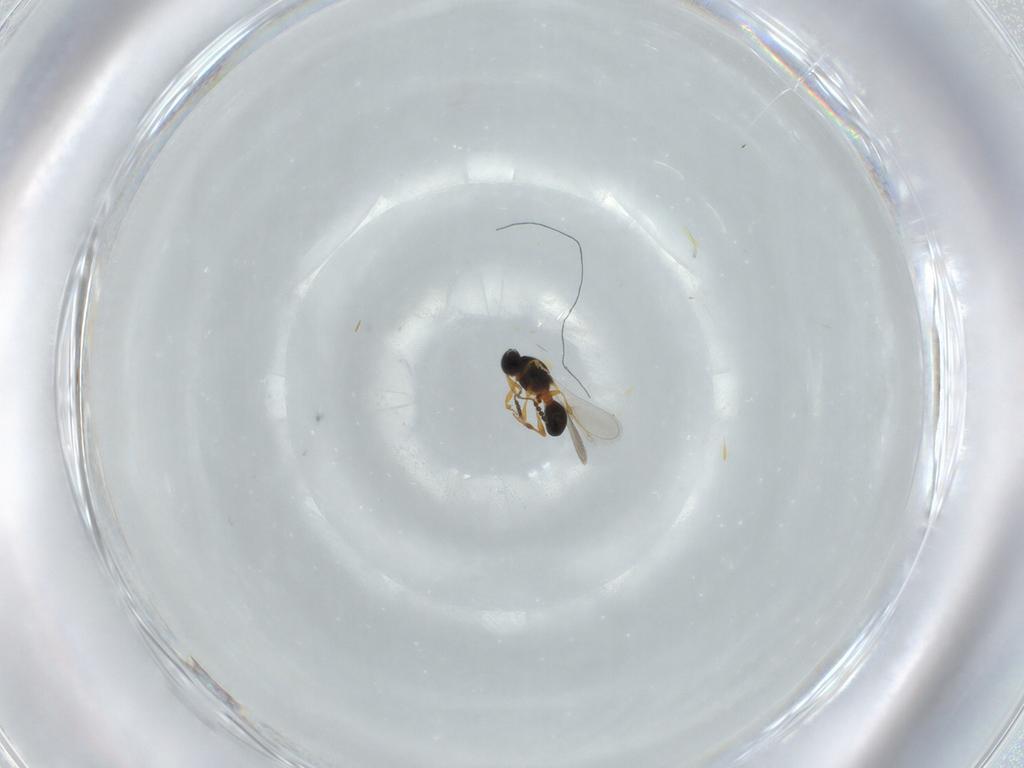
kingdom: Animalia
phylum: Arthropoda
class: Insecta
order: Hymenoptera
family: Platygastridae
